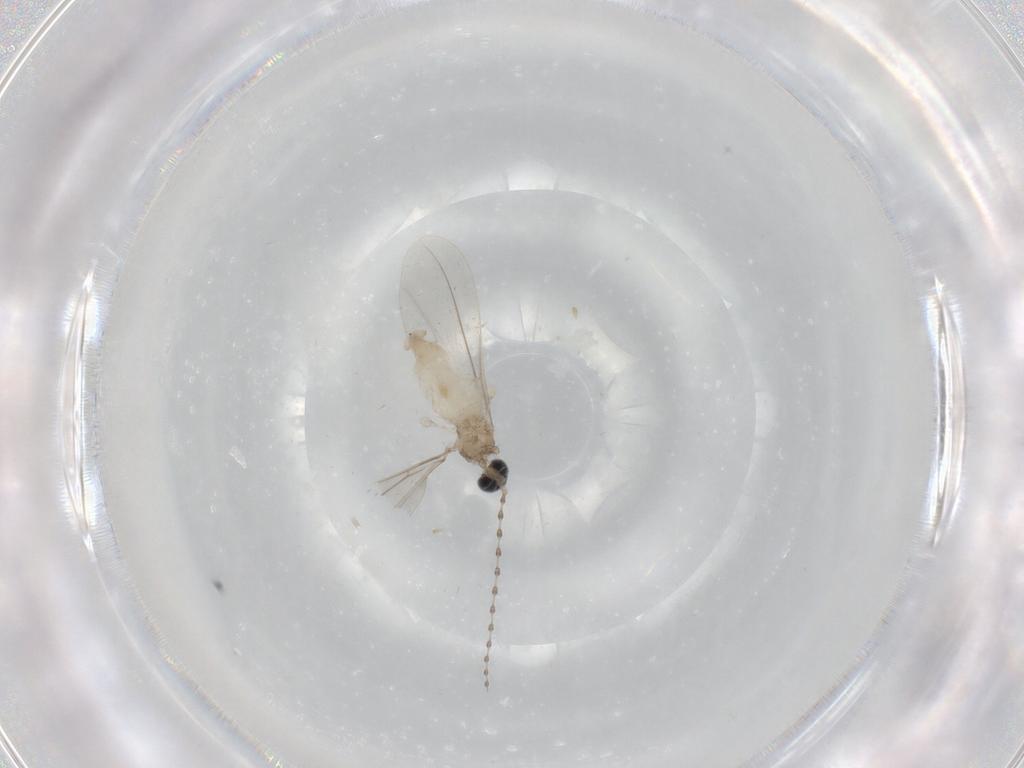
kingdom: Animalia
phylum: Arthropoda
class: Insecta
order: Diptera
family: Cecidomyiidae
